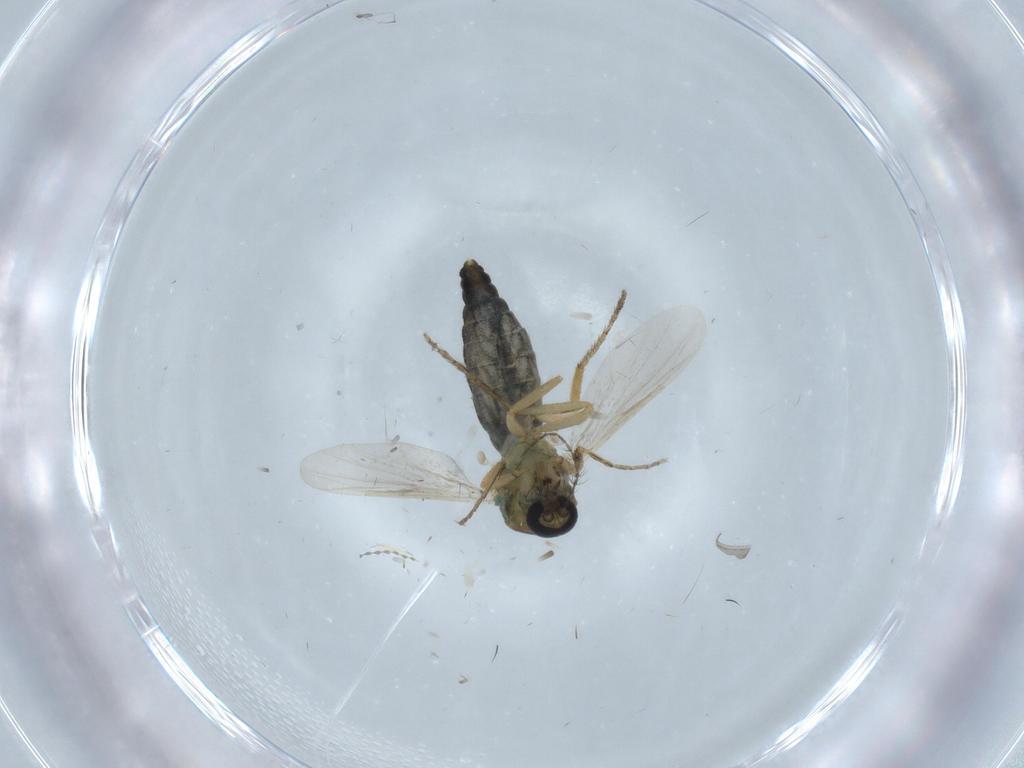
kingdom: Animalia
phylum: Arthropoda
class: Insecta
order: Diptera
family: Ceratopogonidae
